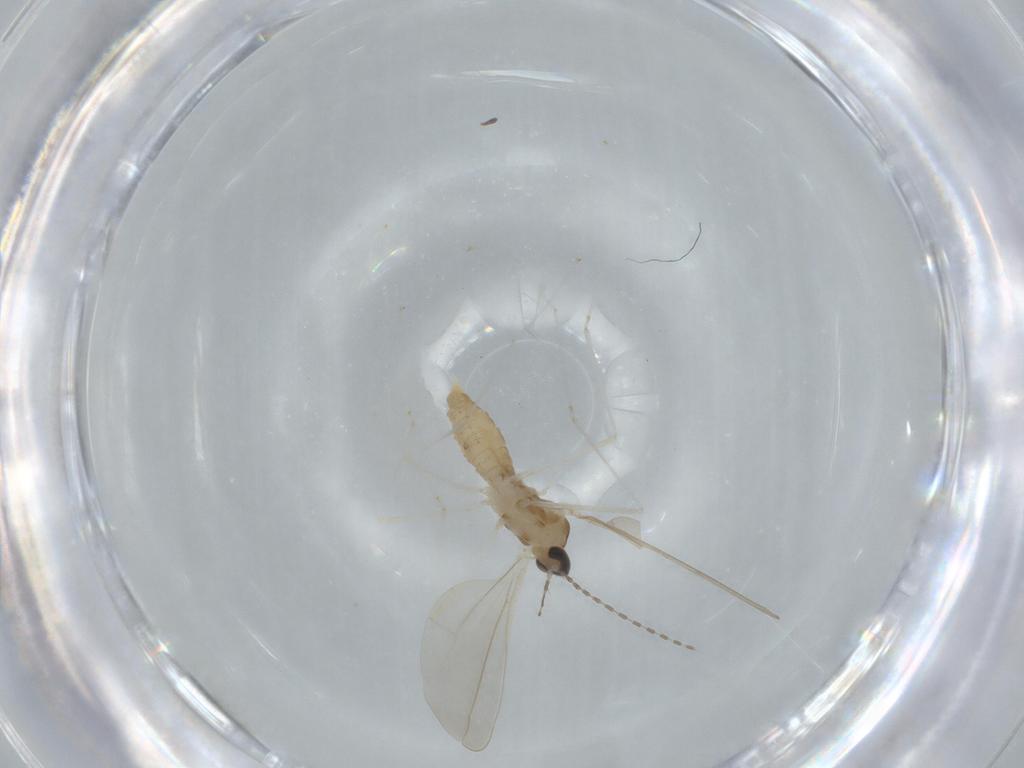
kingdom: Animalia
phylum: Arthropoda
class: Insecta
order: Diptera
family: Cecidomyiidae
